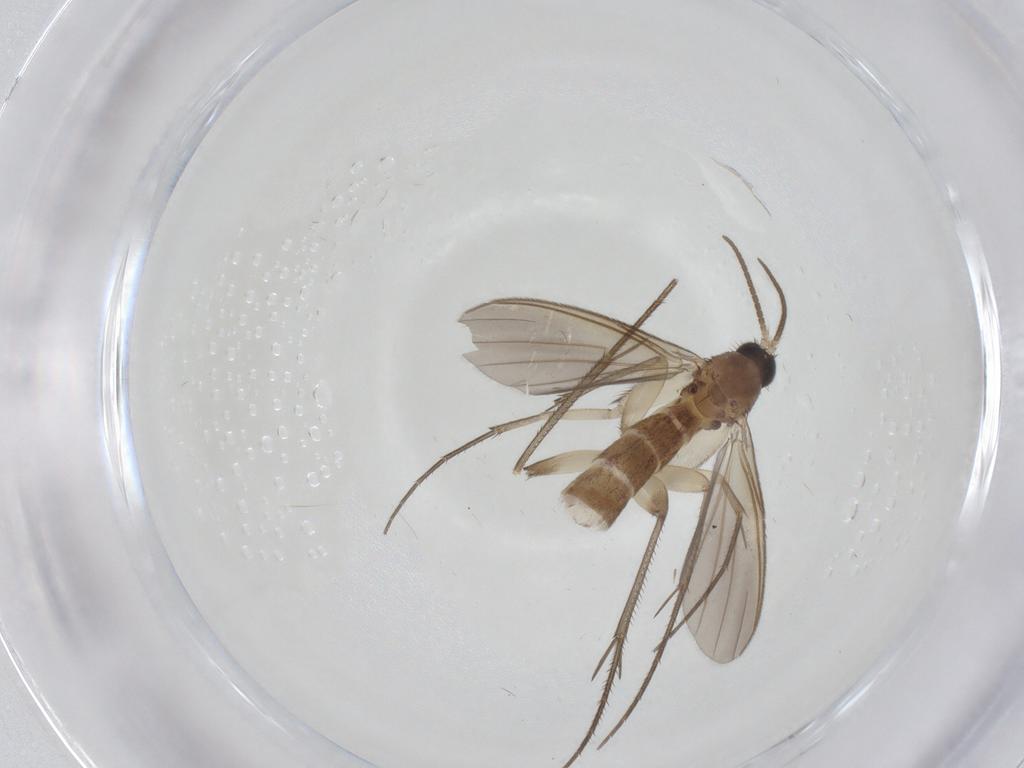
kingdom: Animalia
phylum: Arthropoda
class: Insecta
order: Diptera
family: Mycetophilidae
